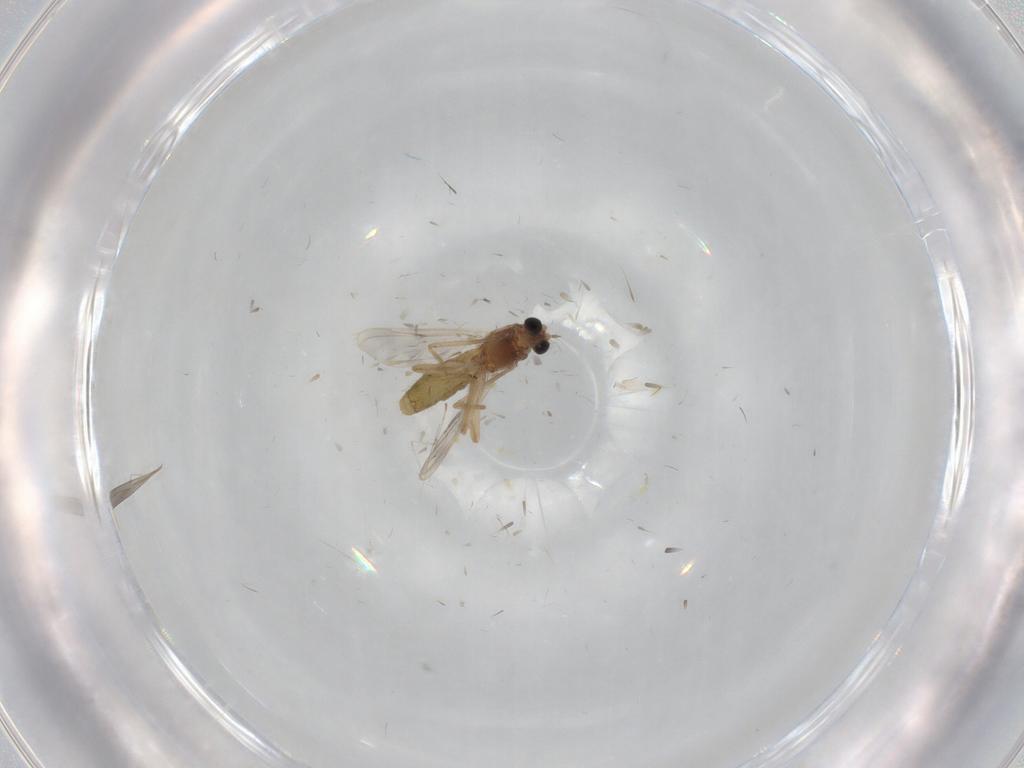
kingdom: Animalia
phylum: Arthropoda
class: Insecta
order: Diptera
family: Chironomidae
